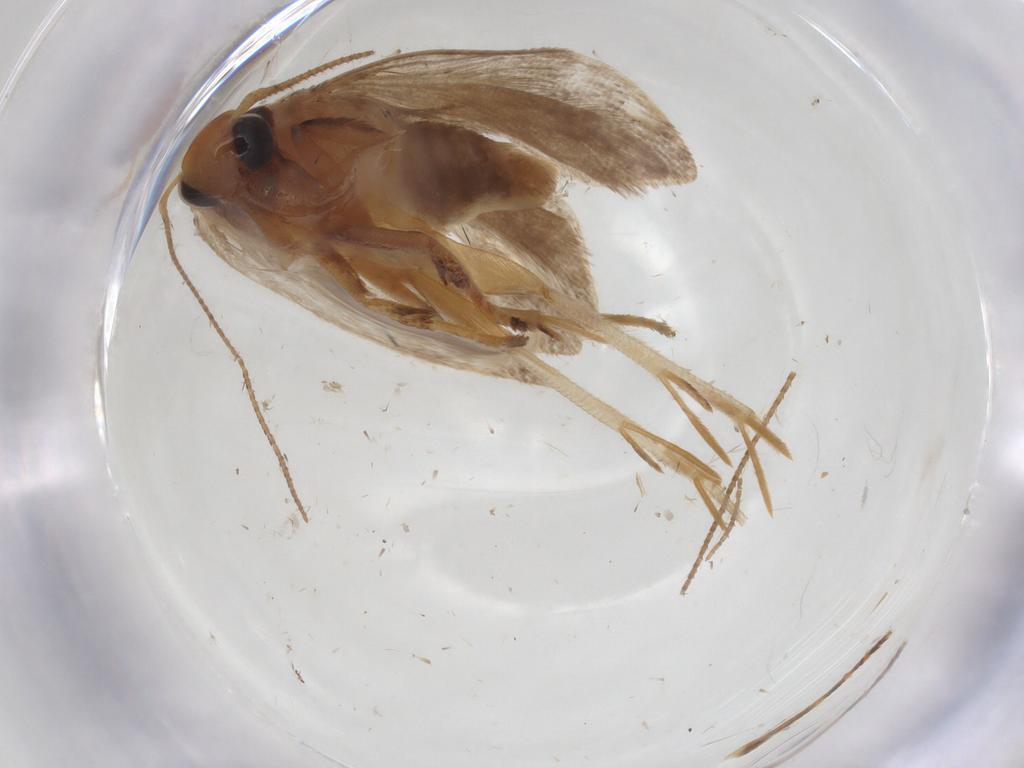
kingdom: Animalia
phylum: Arthropoda
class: Insecta
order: Lepidoptera
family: Gelechiidae
